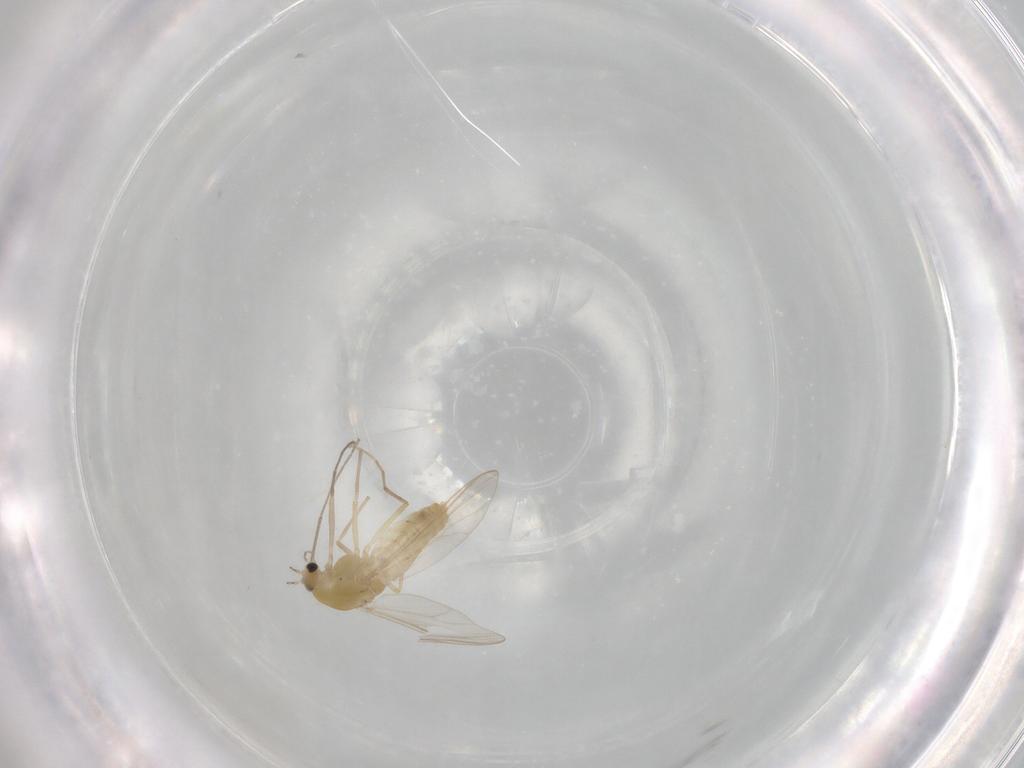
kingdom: Animalia
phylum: Arthropoda
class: Insecta
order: Diptera
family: Chironomidae
